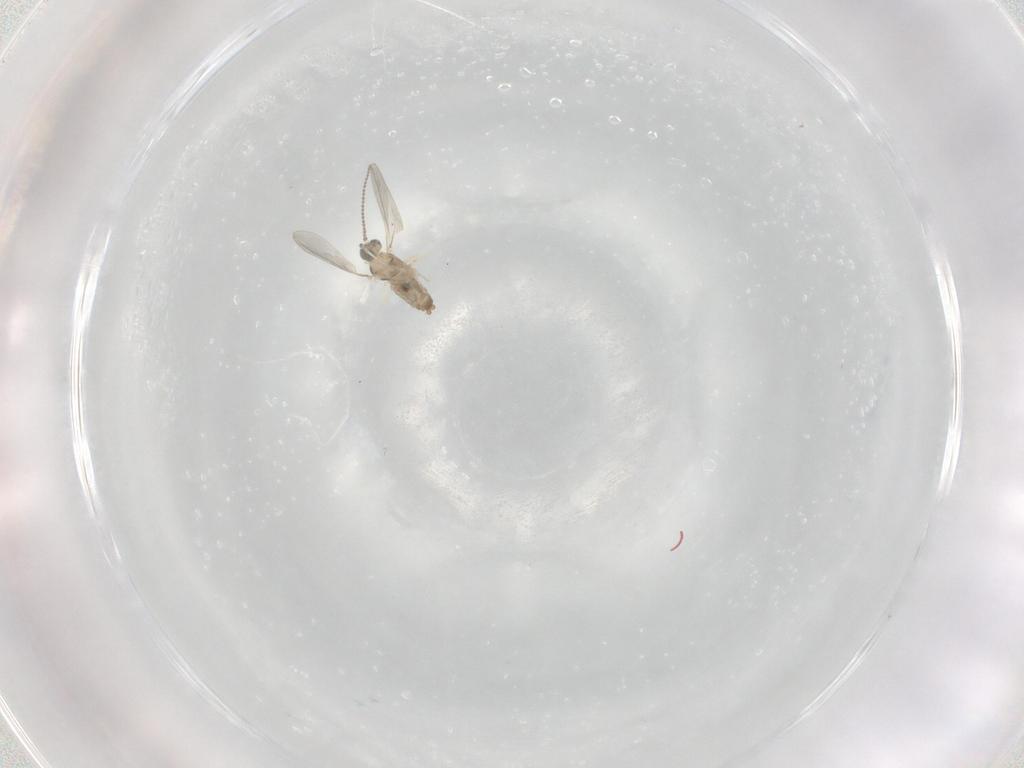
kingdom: Animalia
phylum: Arthropoda
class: Insecta
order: Diptera
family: Cecidomyiidae
